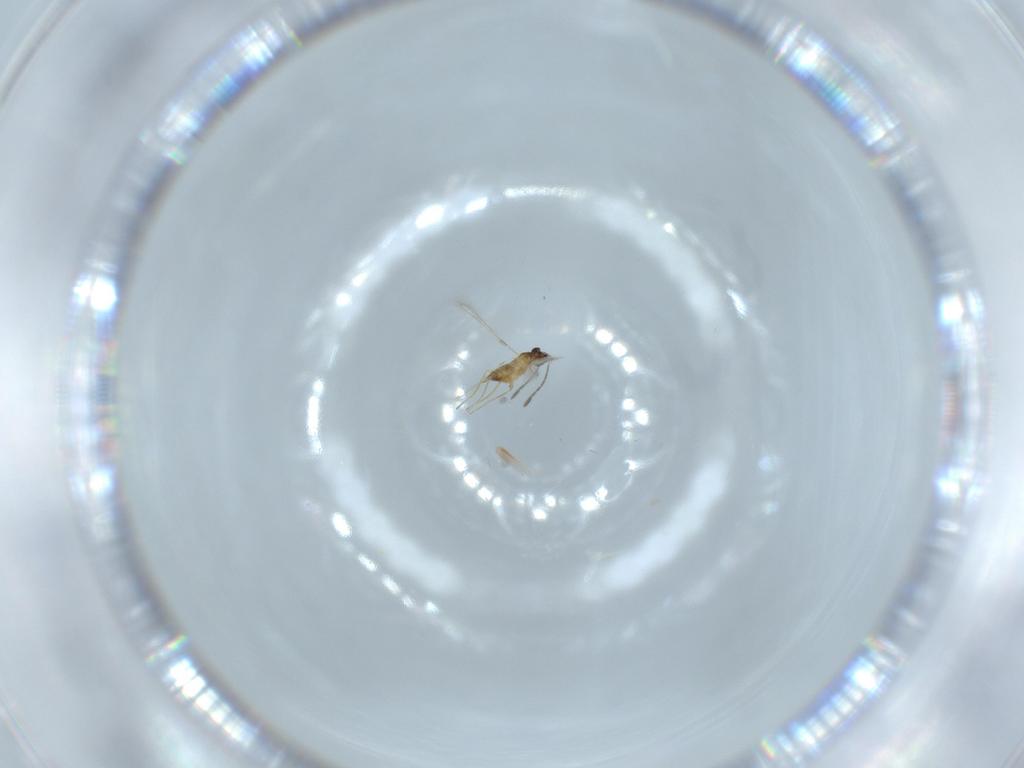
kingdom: Animalia
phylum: Arthropoda
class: Insecta
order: Hymenoptera
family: Mymaridae
